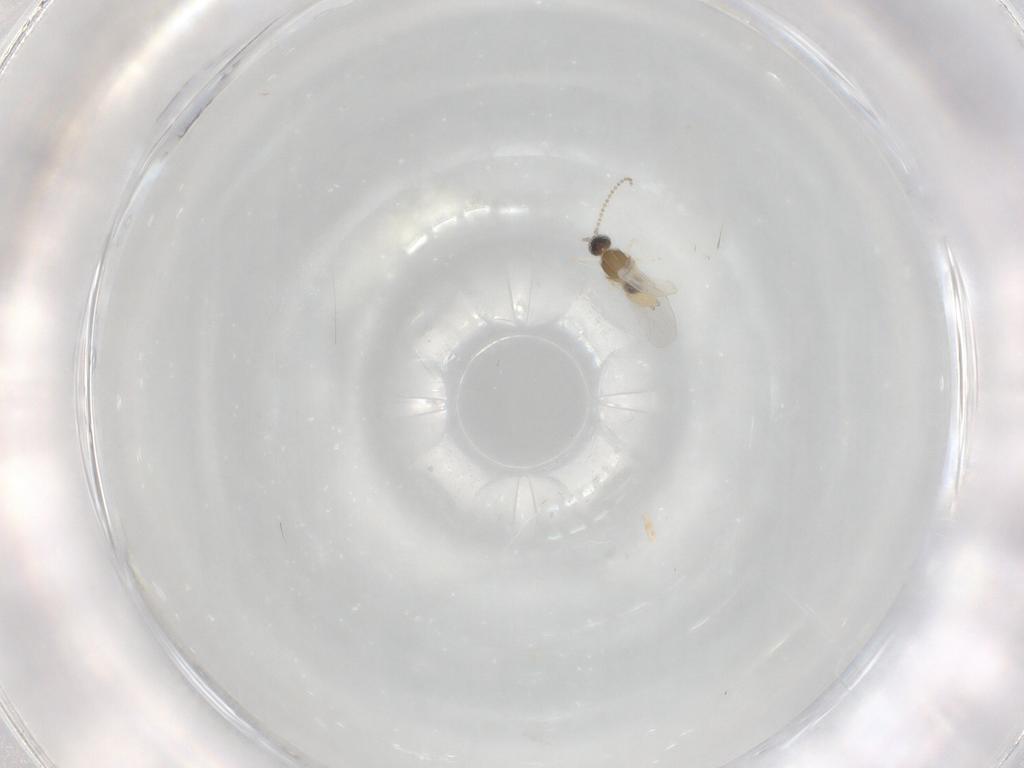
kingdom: Animalia
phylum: Arthropoda
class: Insecta
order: Diptera
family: Cecidomyiidae
